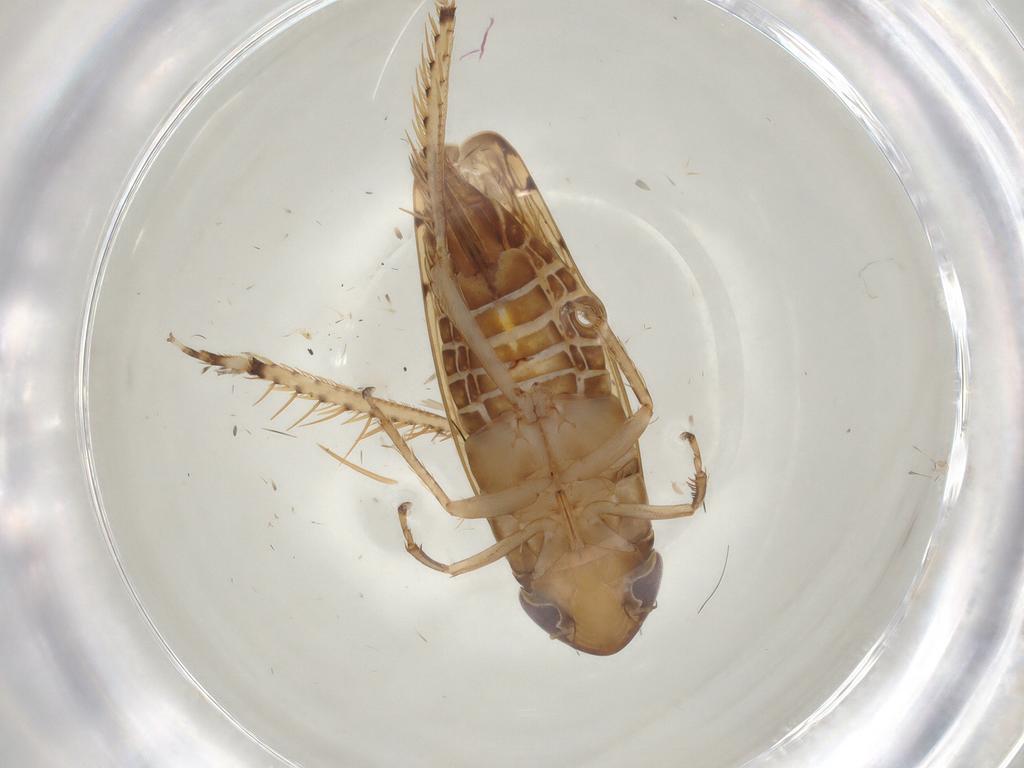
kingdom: Animalia
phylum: Arthropoda
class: Insecta
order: Hemiptera
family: Cicadellidae
